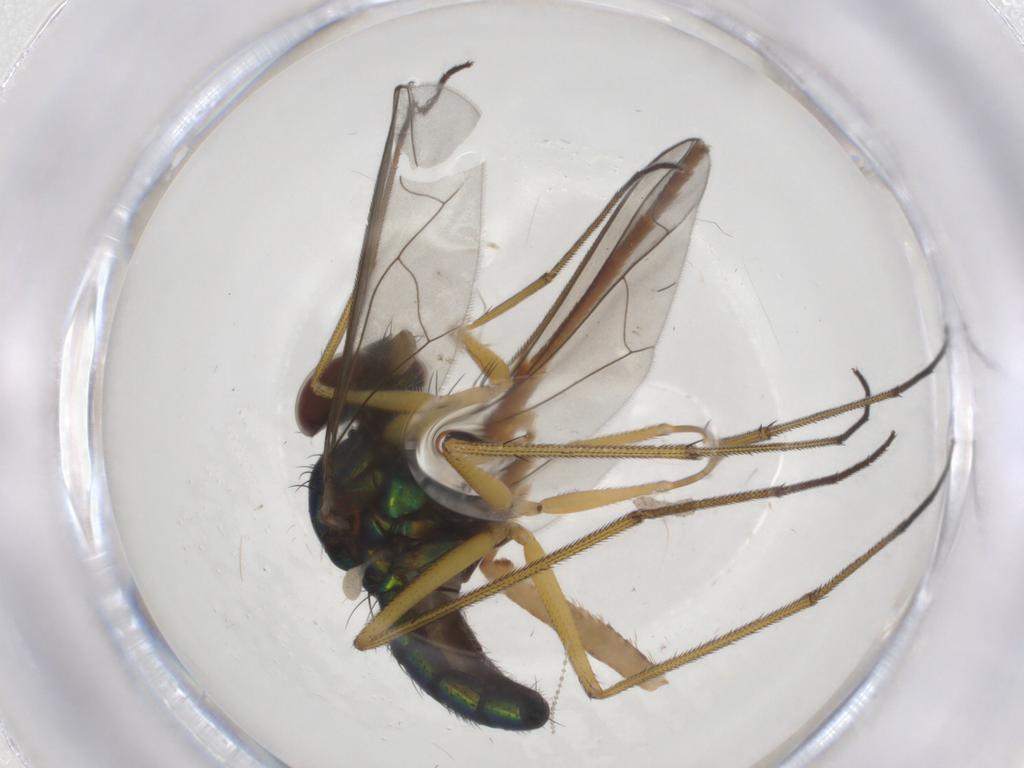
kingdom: Animalia
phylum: Arthropoda
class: Insecta
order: Diptera
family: Dolichopodidae
